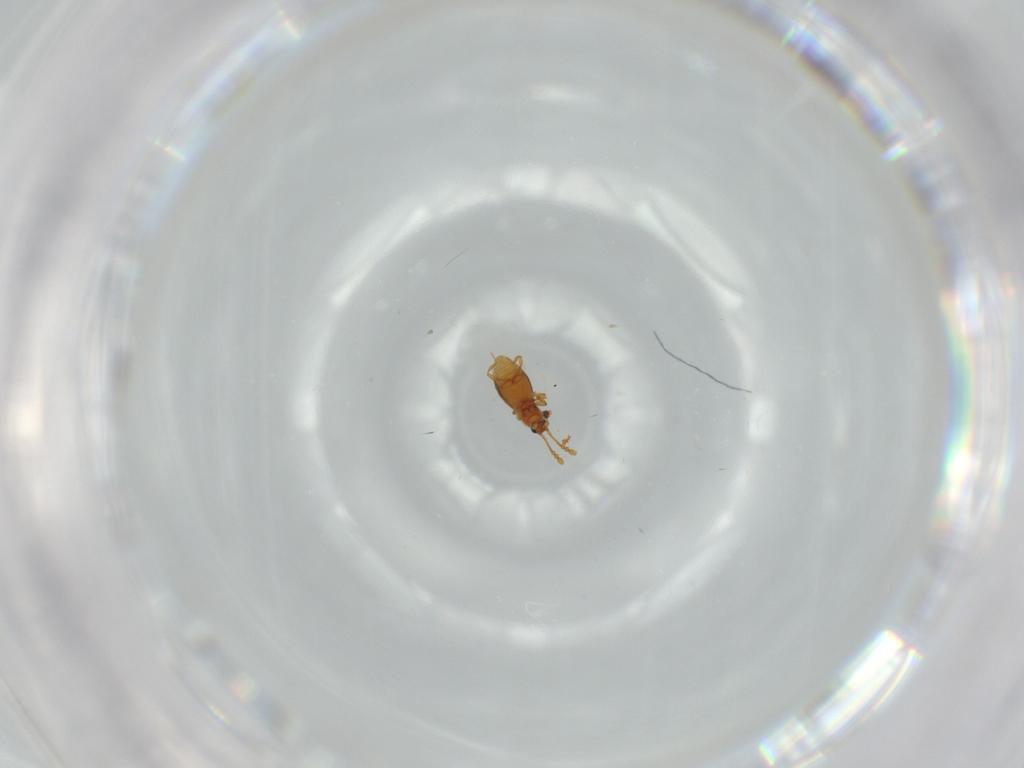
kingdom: Animalia
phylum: Arthropoda
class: Insecta
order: Coleoptera
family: Staphylinidae
